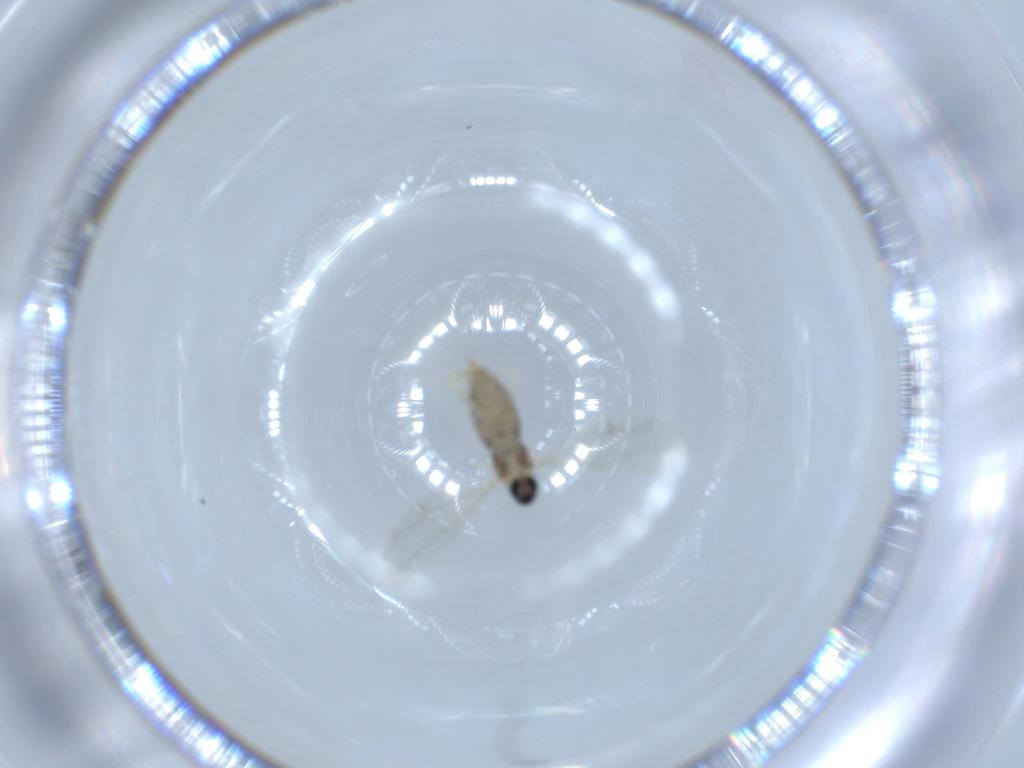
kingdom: Animalia
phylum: Arthropoda
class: Insecta
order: Diptera
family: Cecidomyiidae
